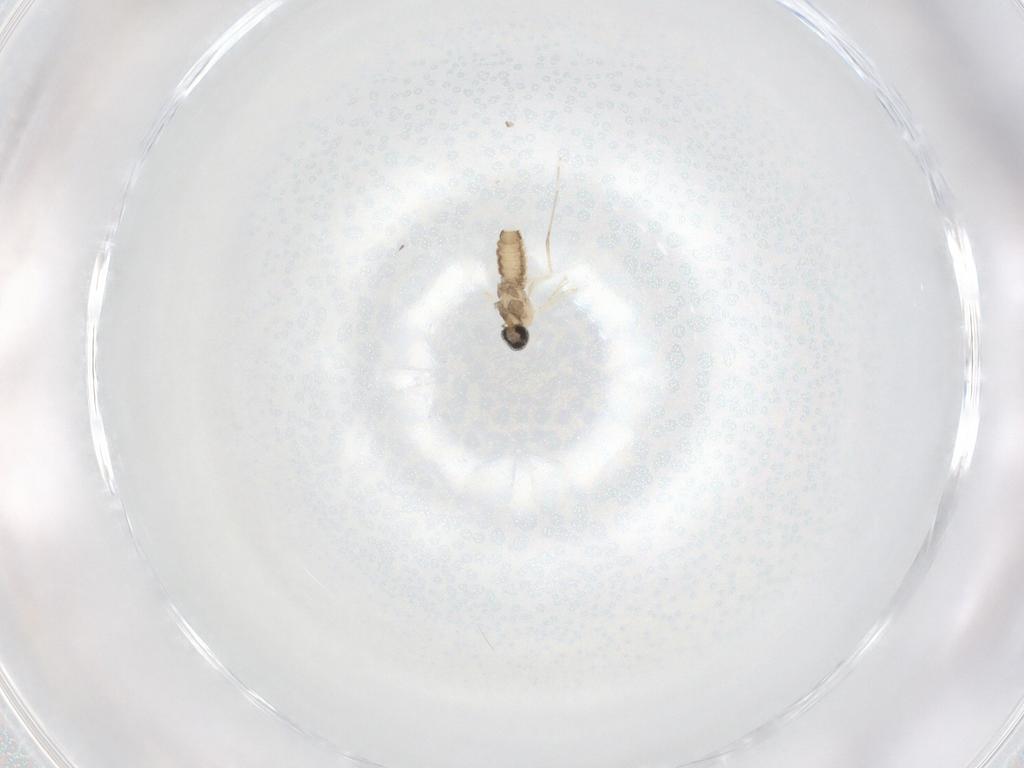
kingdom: Animalia
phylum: Arthropoda
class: Insecta
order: Diptera
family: Cecidomyiidae
